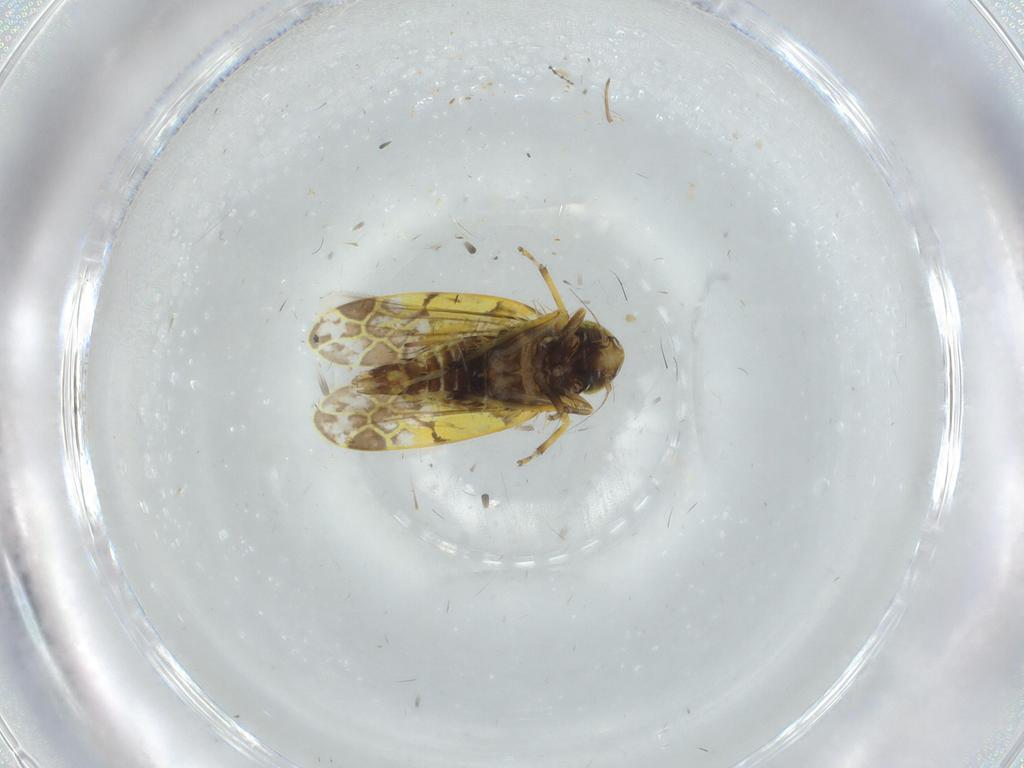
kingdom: Animalia
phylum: Arthropoda
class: Insecta
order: Hemiptera
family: Cicadellidae
